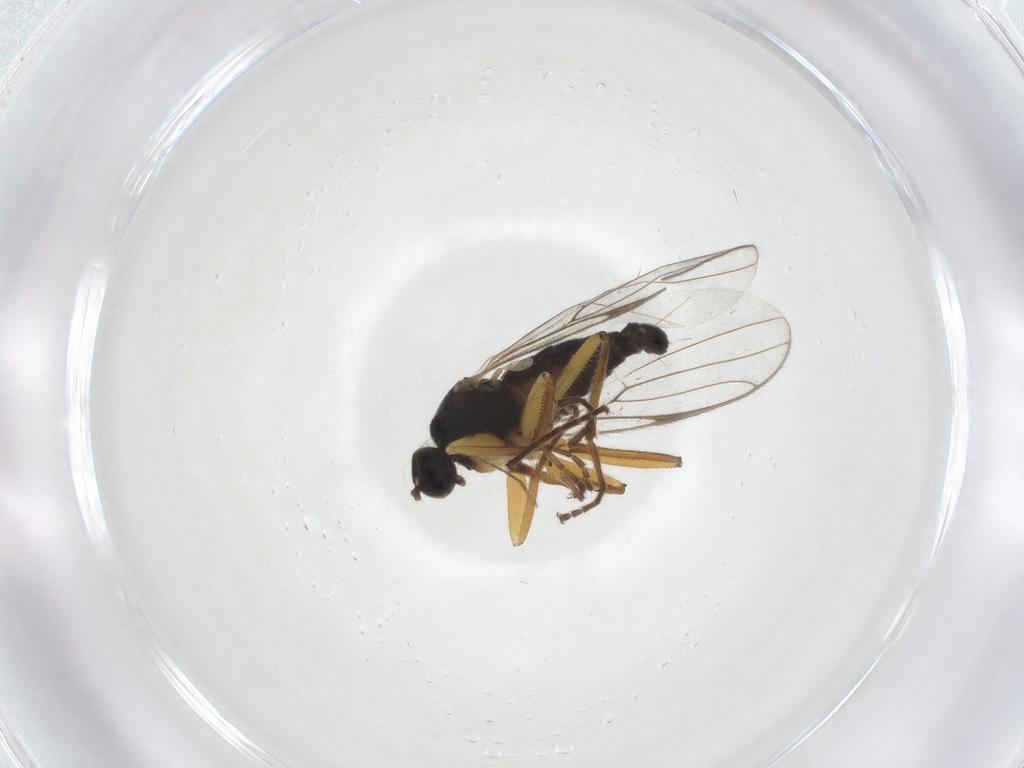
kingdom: Animalia
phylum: Arthropoda
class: Insecta
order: Diptera
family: Hybotidae
